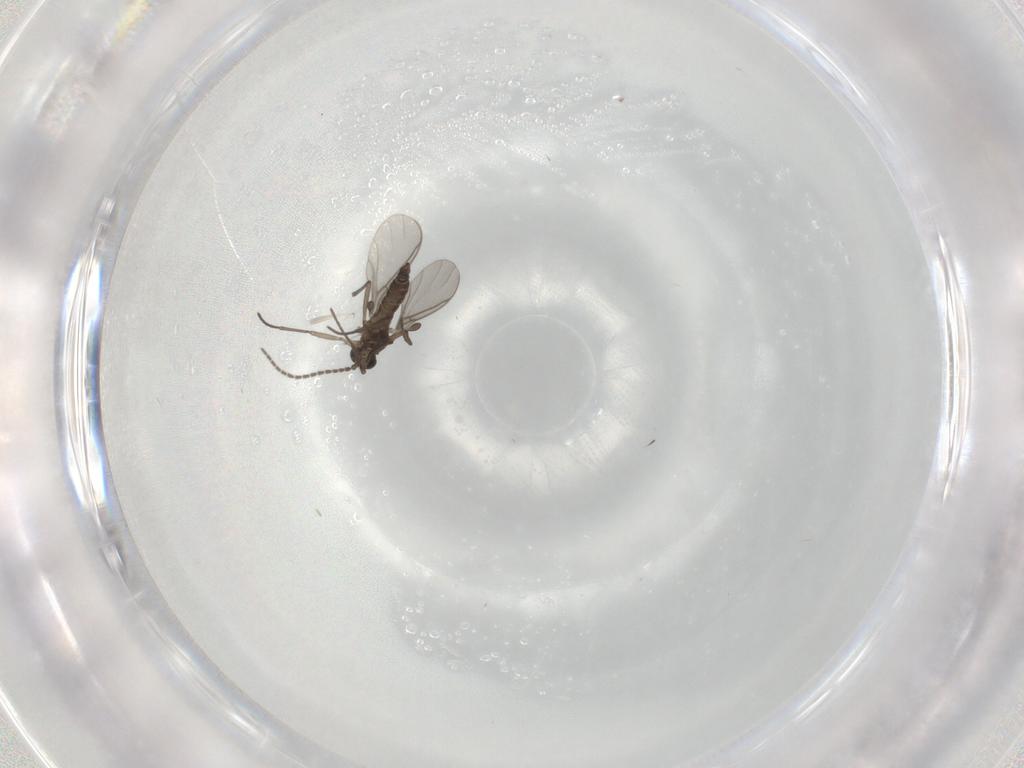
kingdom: Animalia
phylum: Arthropoda
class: Insecta
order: Diptera
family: Sciaridae
